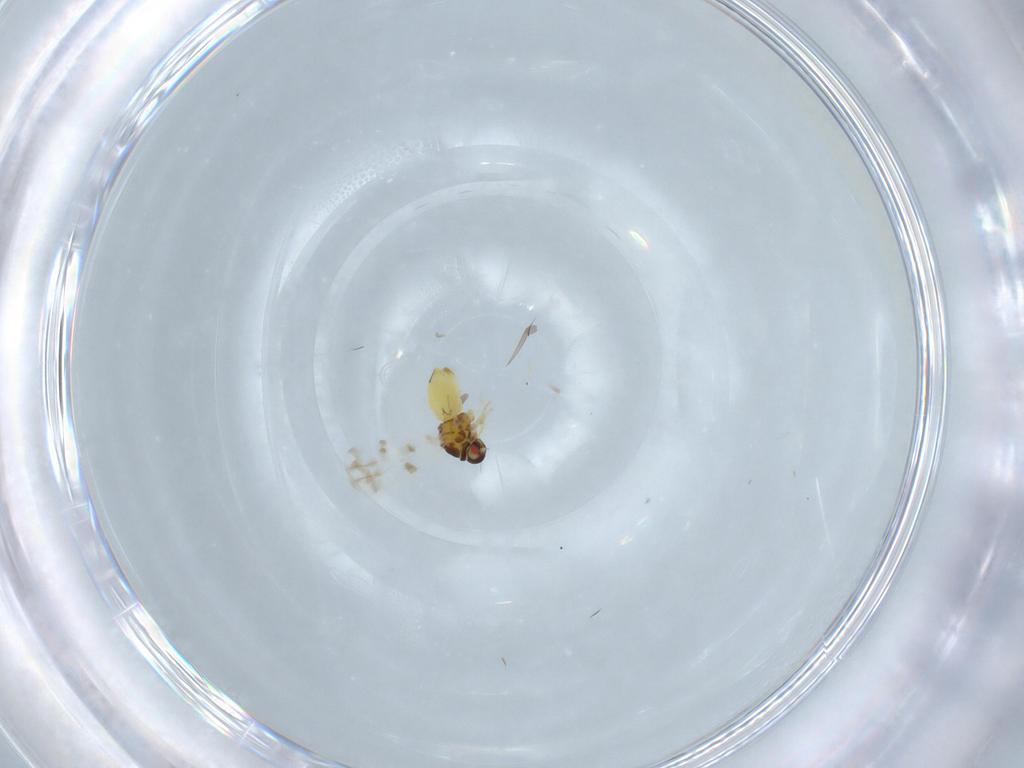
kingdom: Animalia
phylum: Arthropoda
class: Insecta
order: Hemiptera
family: Aleyrodidae
